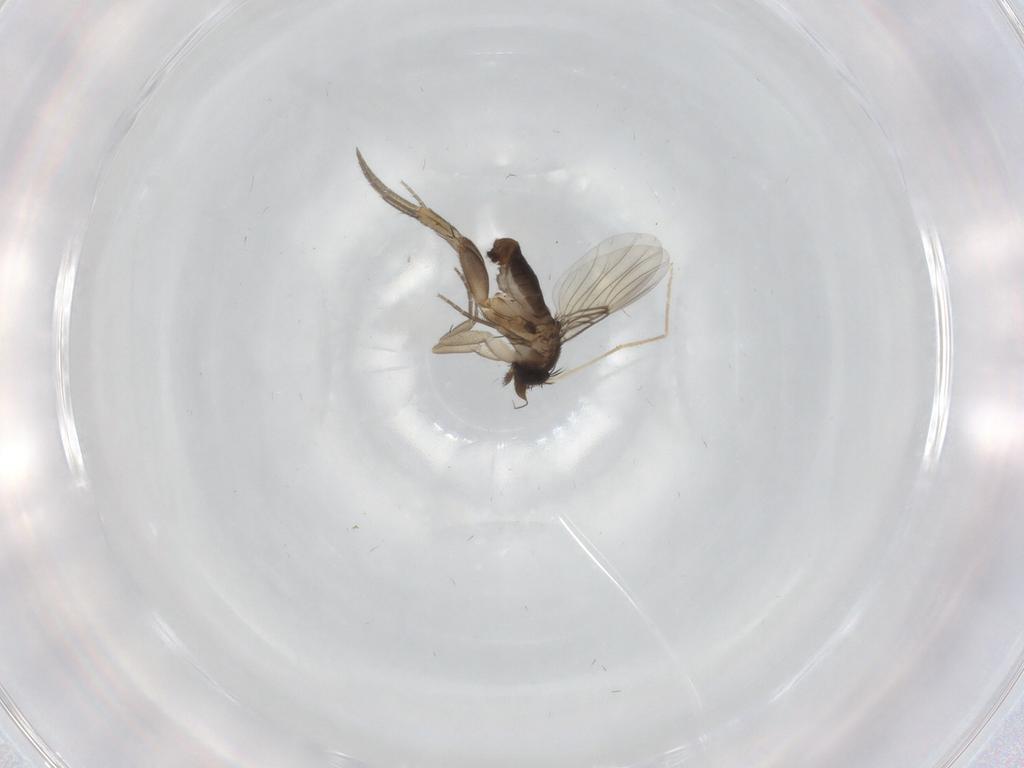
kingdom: Animalia
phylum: Arthropoda
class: Insecta
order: Diptera
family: Phoridae
